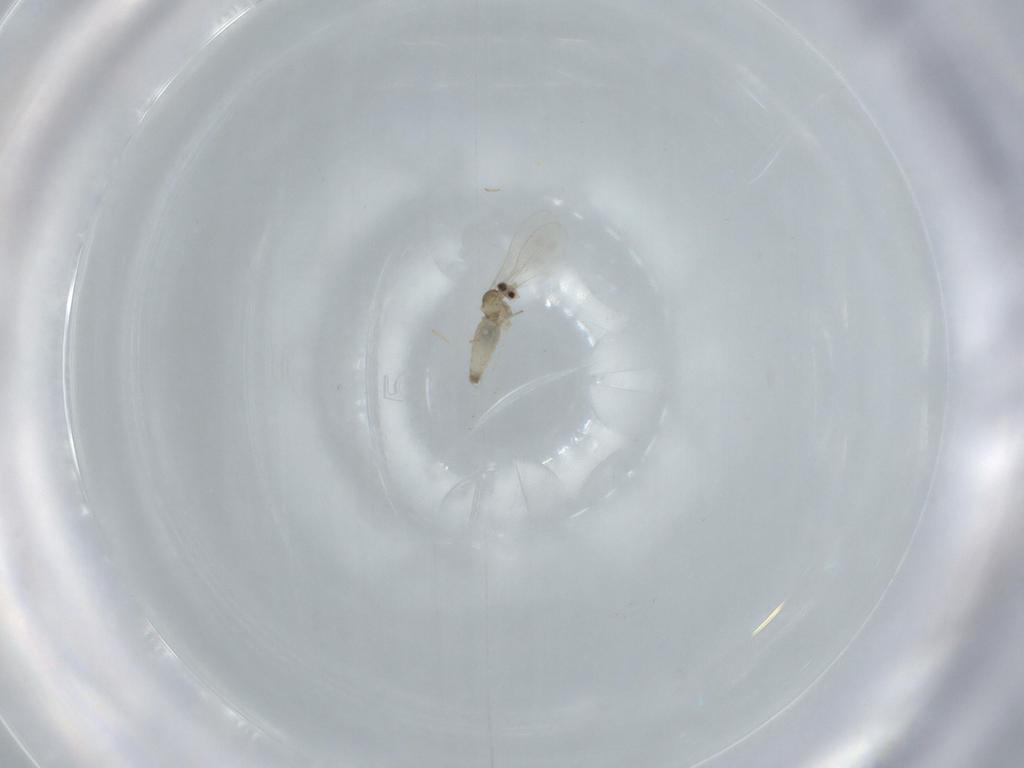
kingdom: Animalia
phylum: Arthropoda
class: Insecta
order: Diptera
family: Cecidomyiidae
